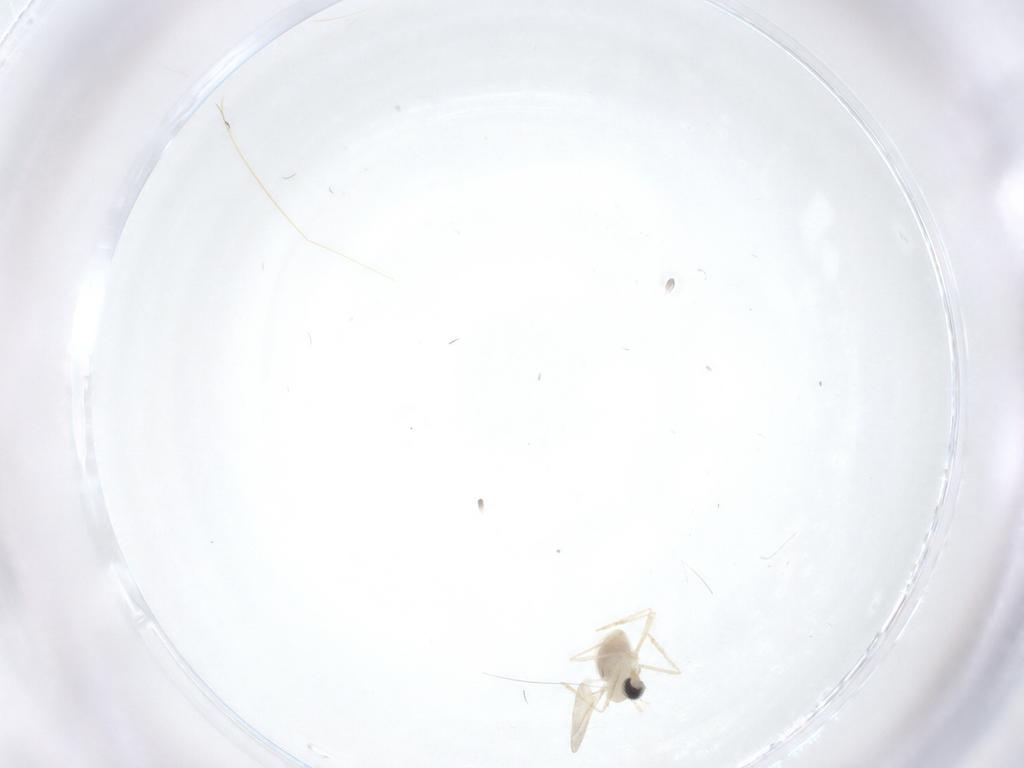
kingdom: Animalia
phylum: Arthropoda
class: Insecta
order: Diptera
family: Cecidomyiidae
